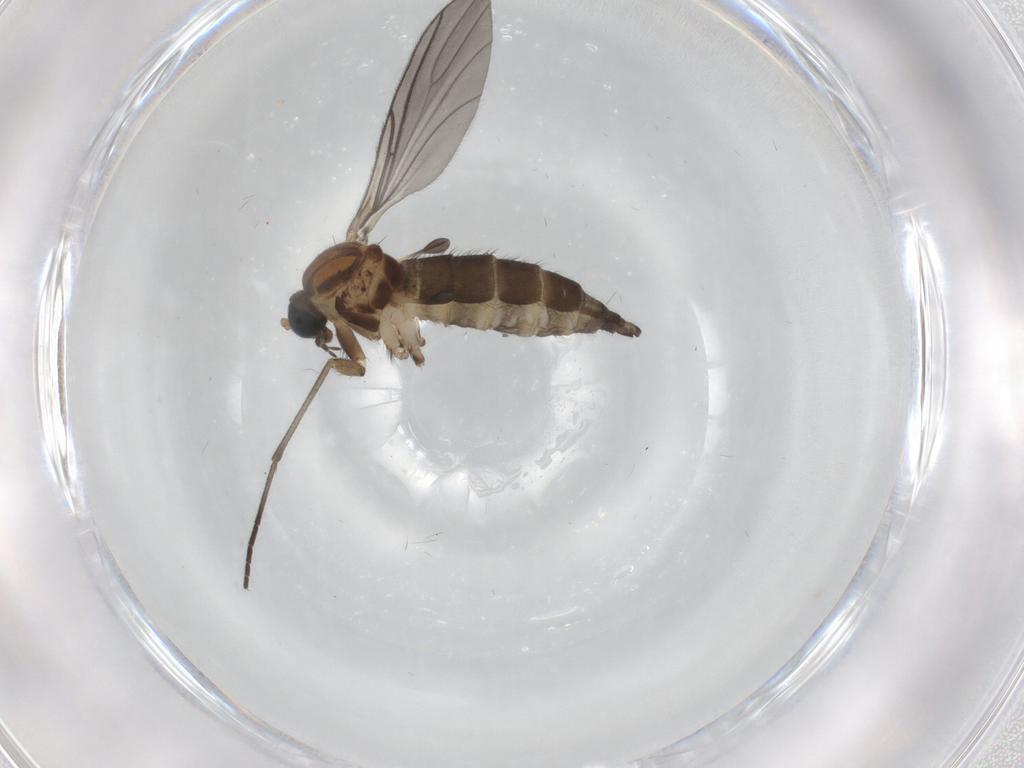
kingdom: Animalia
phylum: Arthropoda
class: Insecta
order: Diptera
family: Sciaridae
